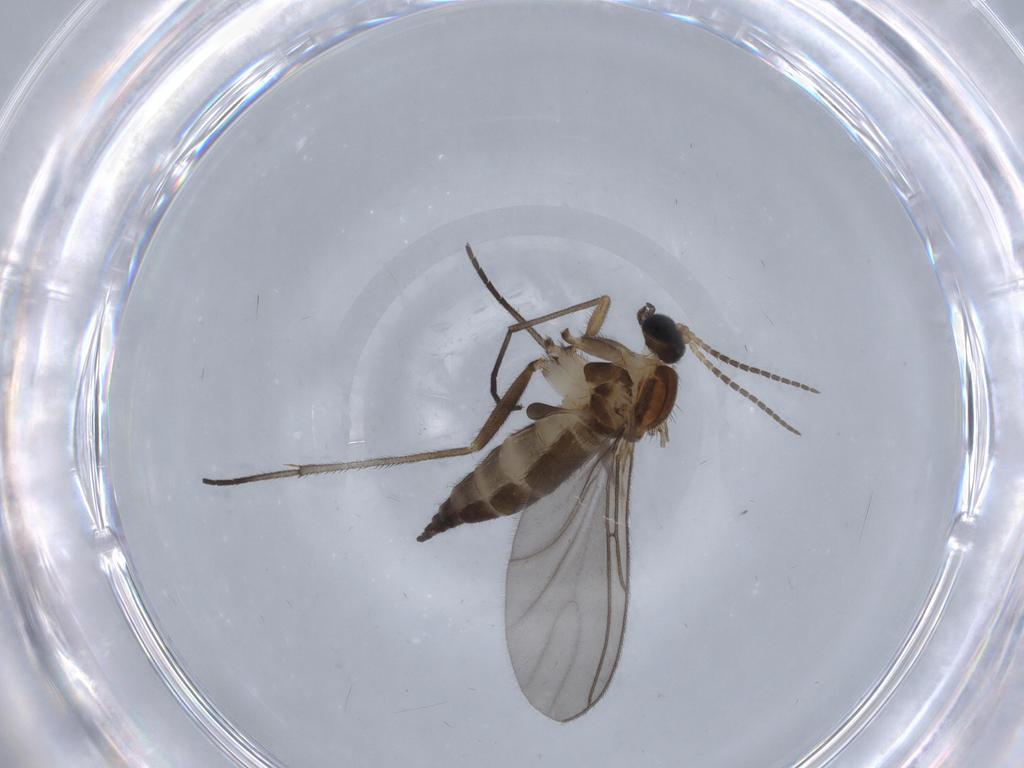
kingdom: Animalia
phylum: Arthropoda
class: Insecta
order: Diptera
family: Sciaridae
